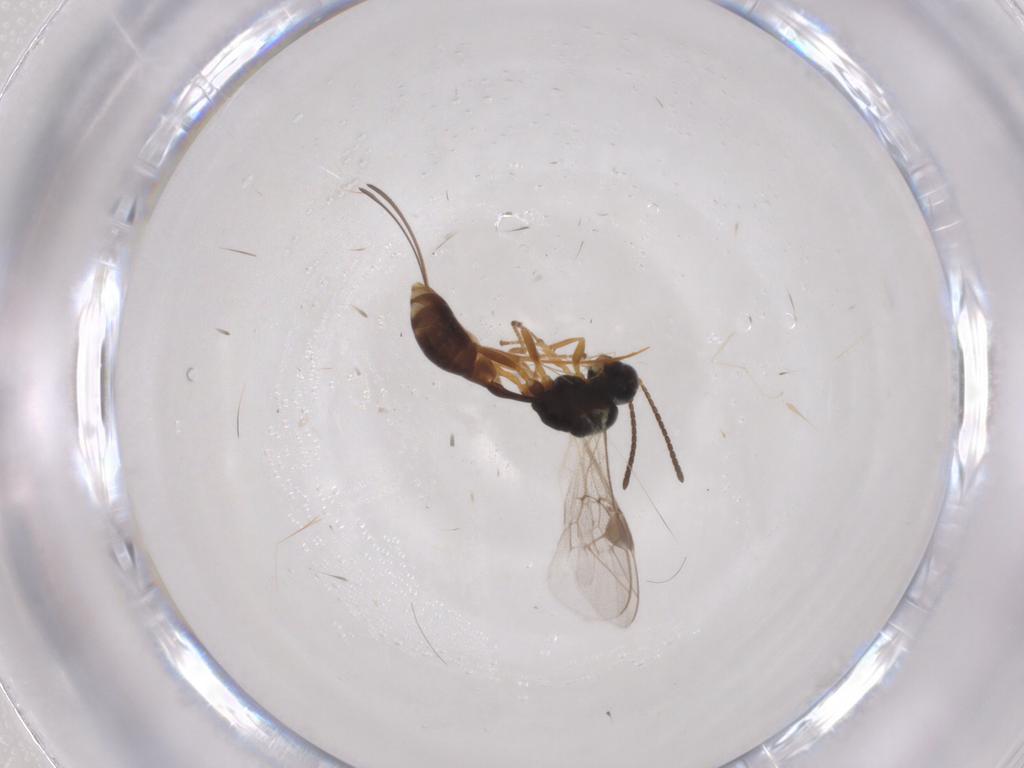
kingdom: Animalia
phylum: Arthropoda
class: Insecta
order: Hymenoptera
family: Ichneumonidae
